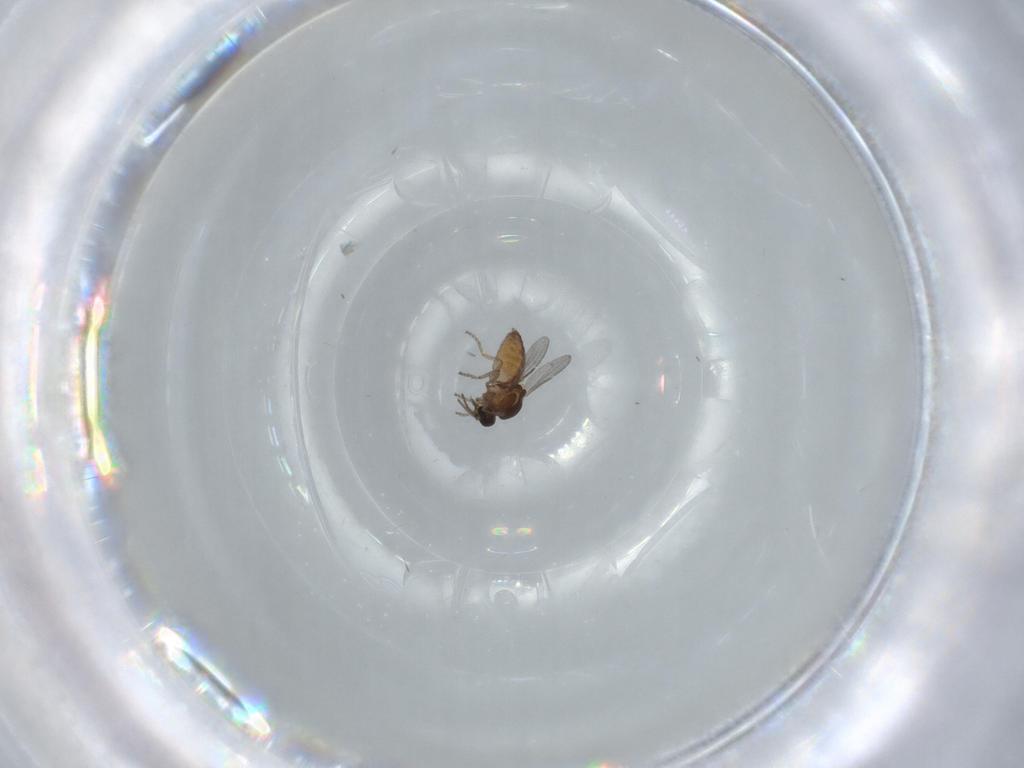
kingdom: Animalia
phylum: Arthropoda
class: Insecta
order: Diptera
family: Ceratopogonidae
